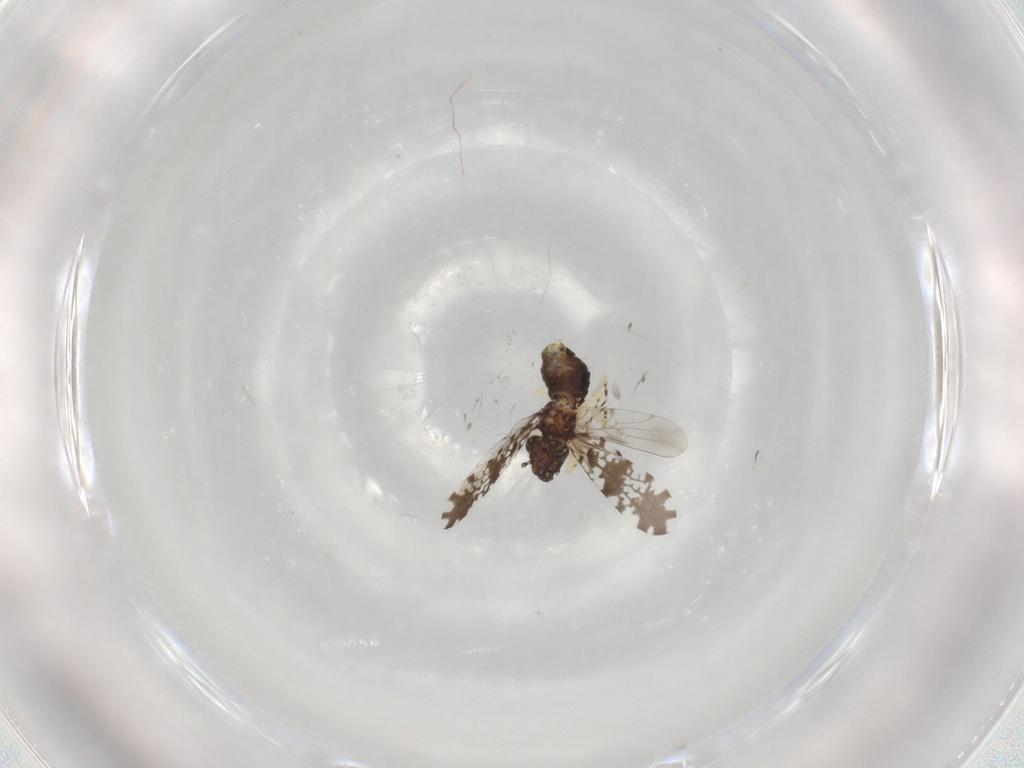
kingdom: Animalia
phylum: Arthropoda
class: Insecta
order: Psocodea
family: Psoquillidae
